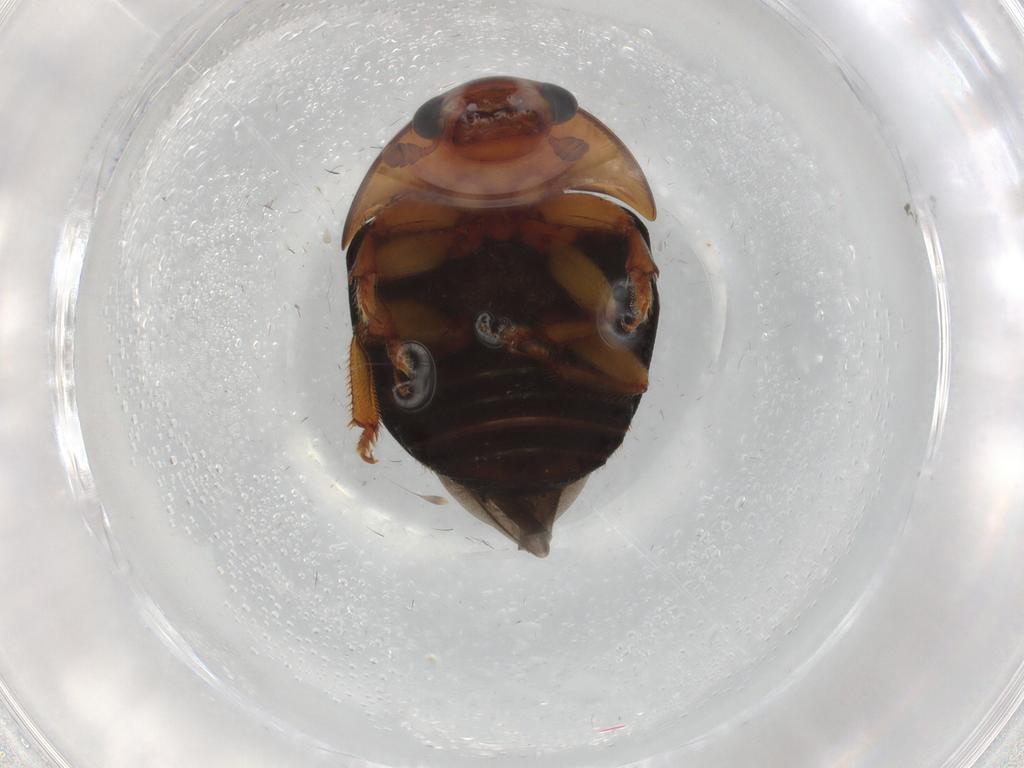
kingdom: Animalia
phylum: Arthropoda
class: Insecta
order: Coleoptera
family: Nitidulidae
